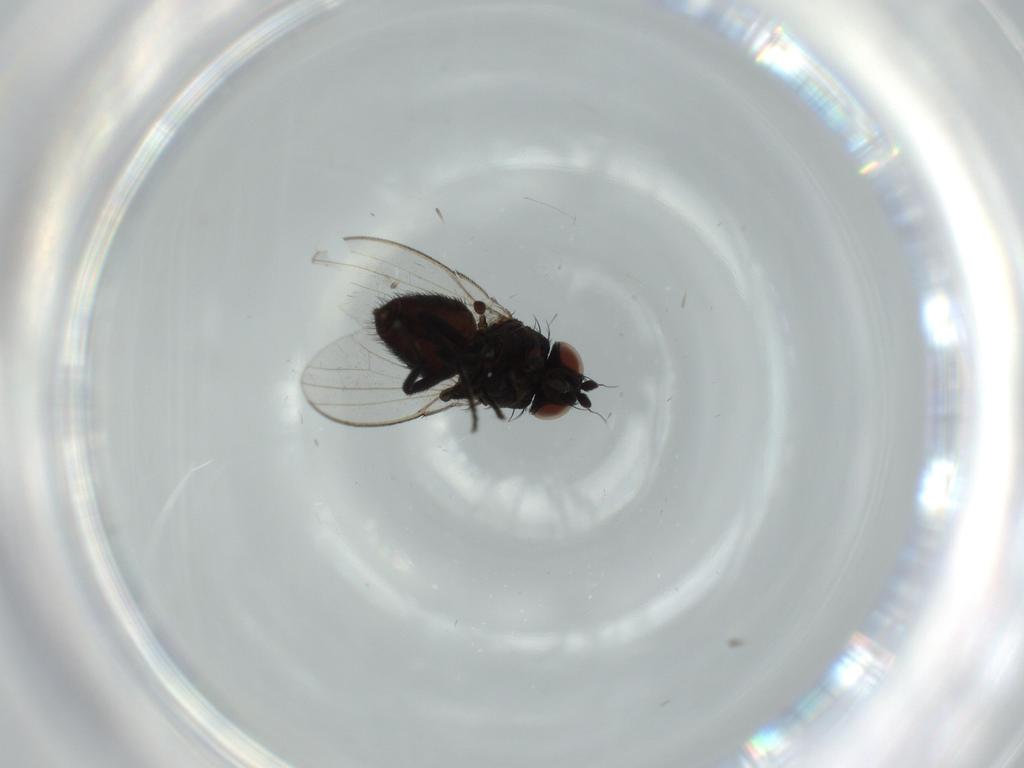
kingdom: Animalia
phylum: Arthropoda
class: Insecta
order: Diptera
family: Milichiidae
